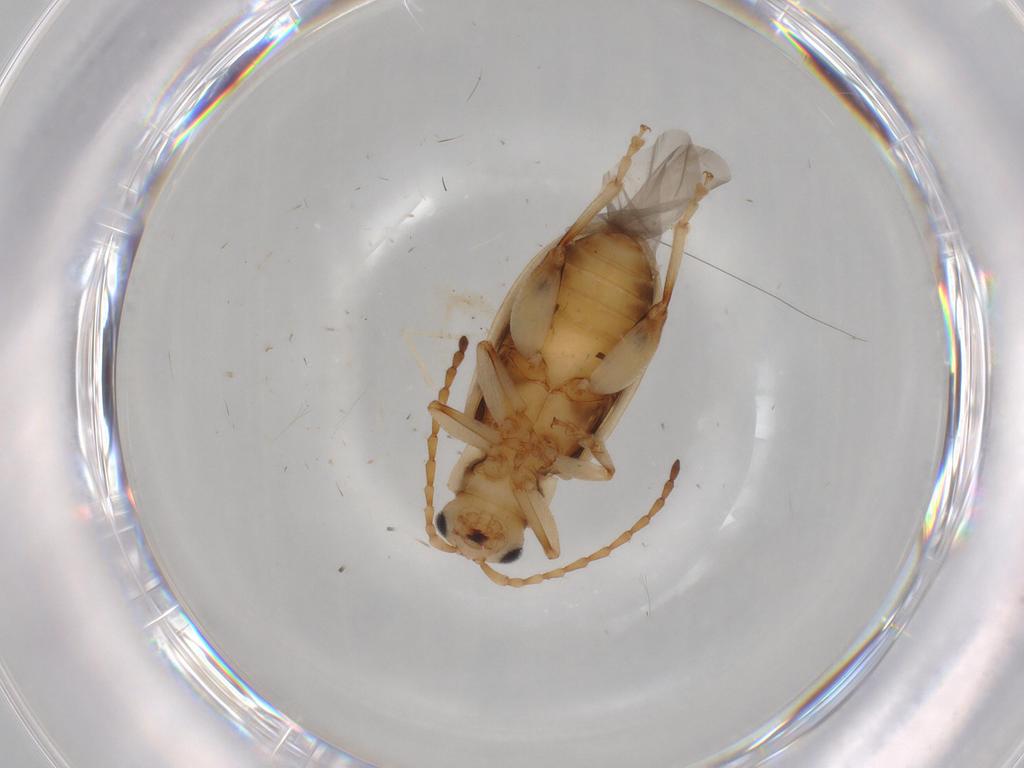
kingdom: Animalia
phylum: Arthropoda
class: Insecta
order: Coleoptera
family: Chrysomelidae
